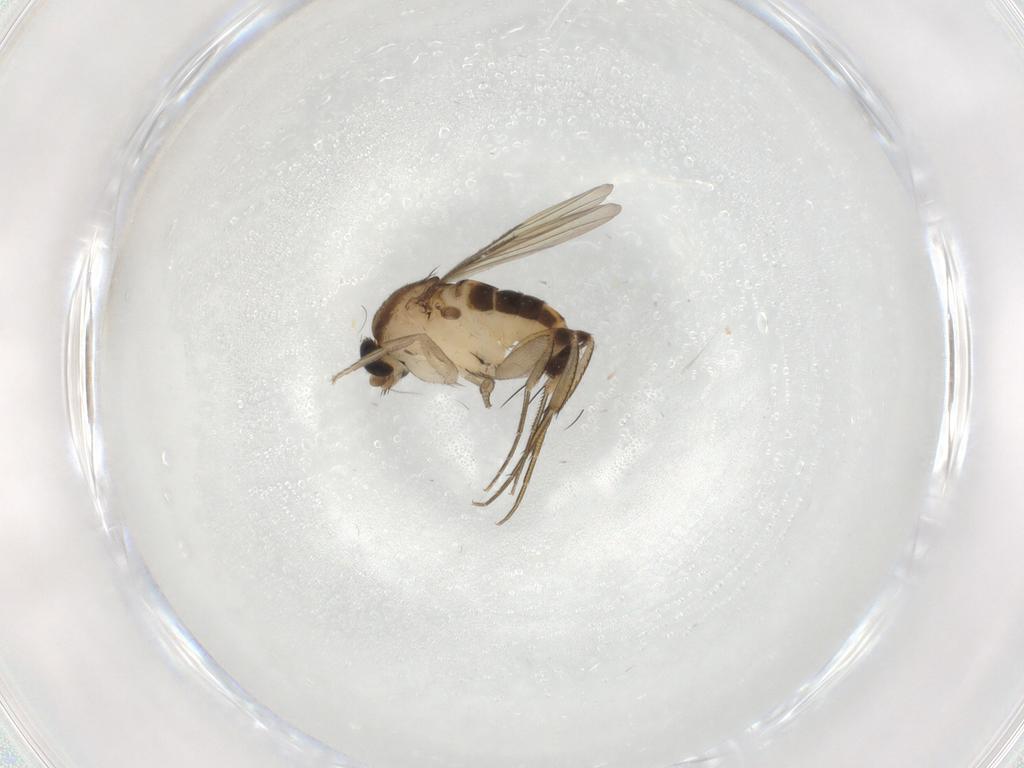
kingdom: Animalia
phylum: Arthropoda
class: Insecta
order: Diptera
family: Phoridae
